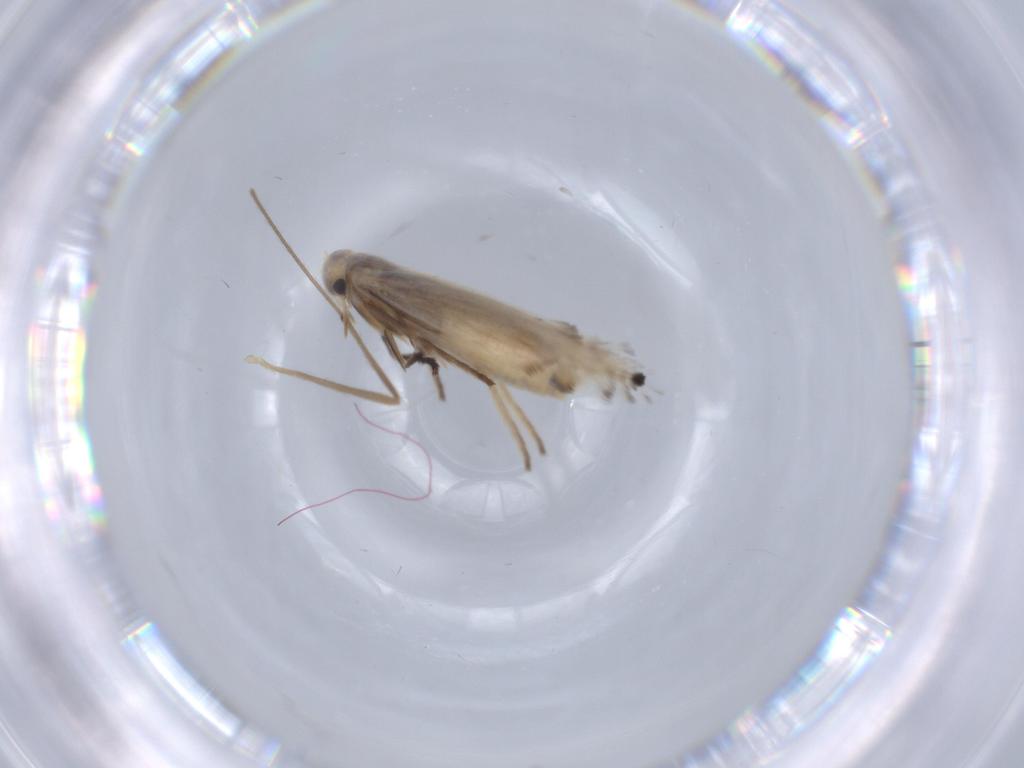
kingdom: Animalia
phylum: Arthropoda
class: Insecta
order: Lepidoptera
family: Gracillariidae
